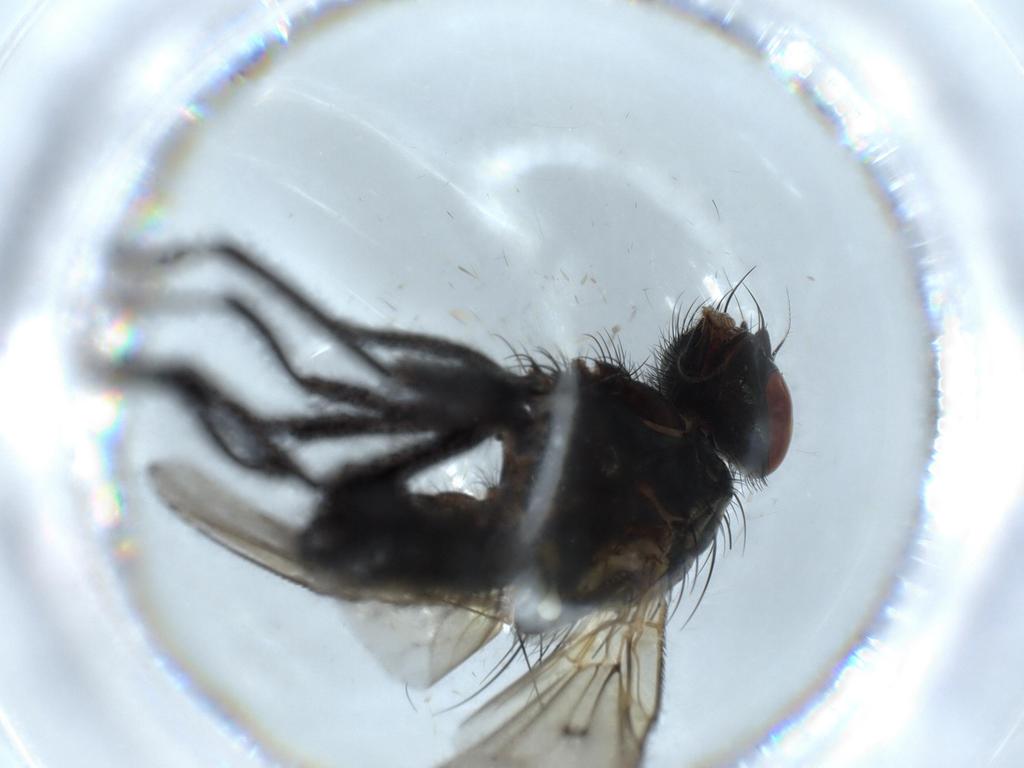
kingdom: Animalia
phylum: Arthropoda
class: Insecta
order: Diptera
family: Anthomyiidae
